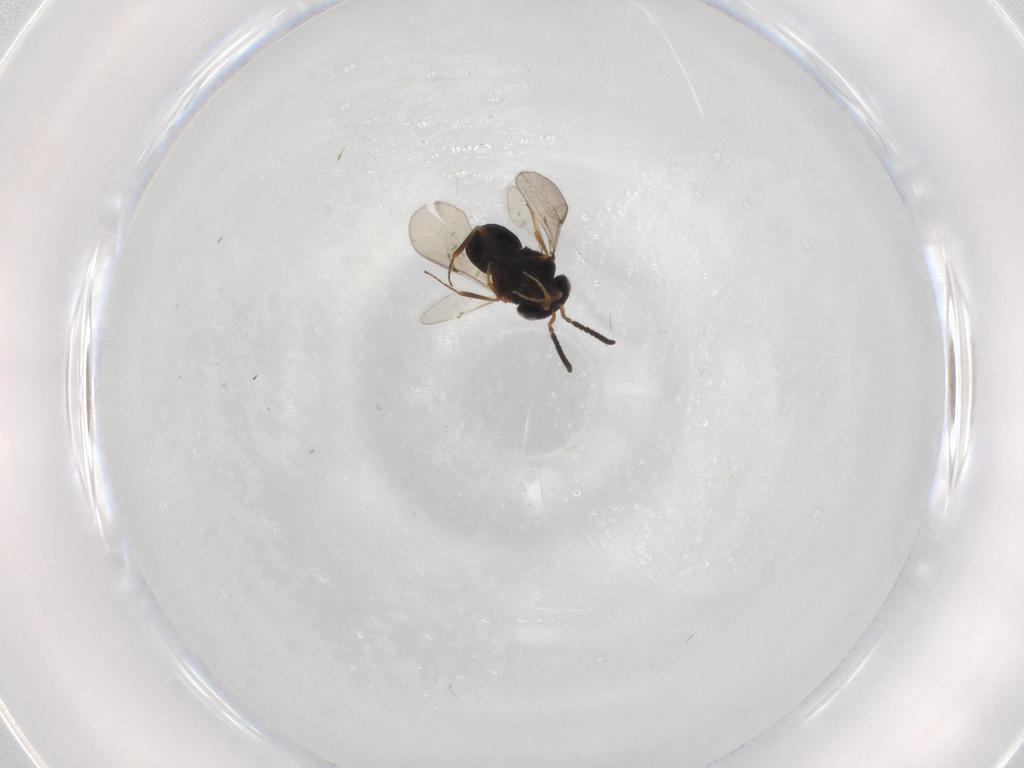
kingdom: Animalia
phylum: Arthropoda
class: Insecta
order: Hymenoptera
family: Scelionidae
